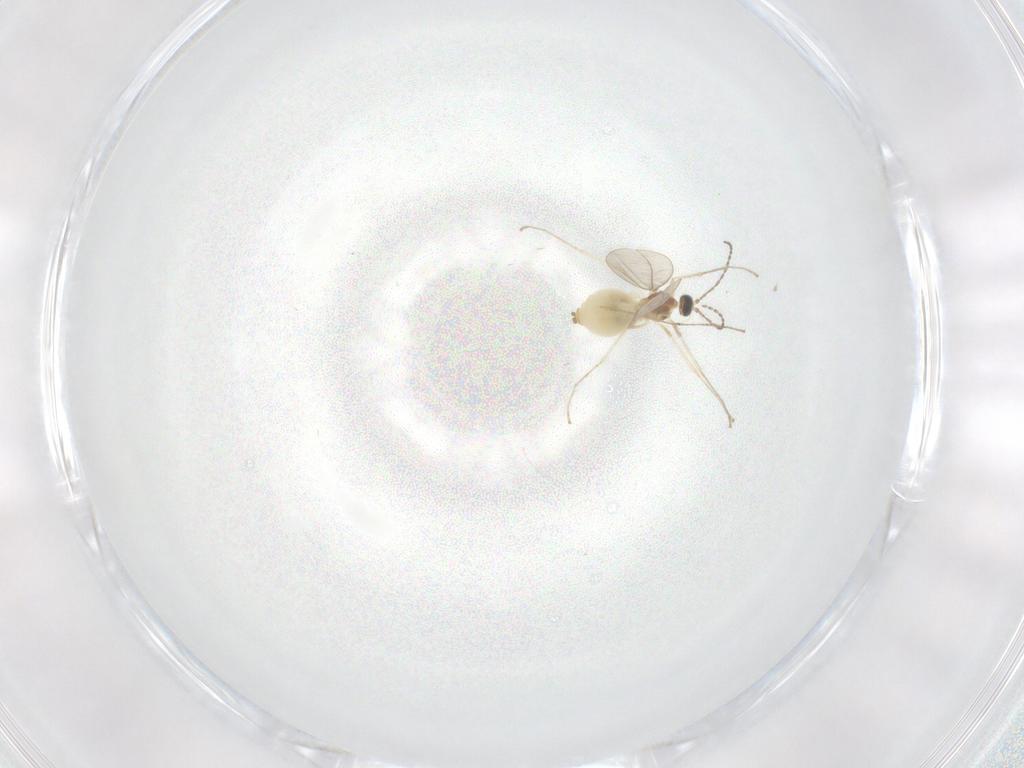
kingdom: Animalia
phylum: Arthropoda
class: Insecta
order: Diptera
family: Cecidomyiidae
